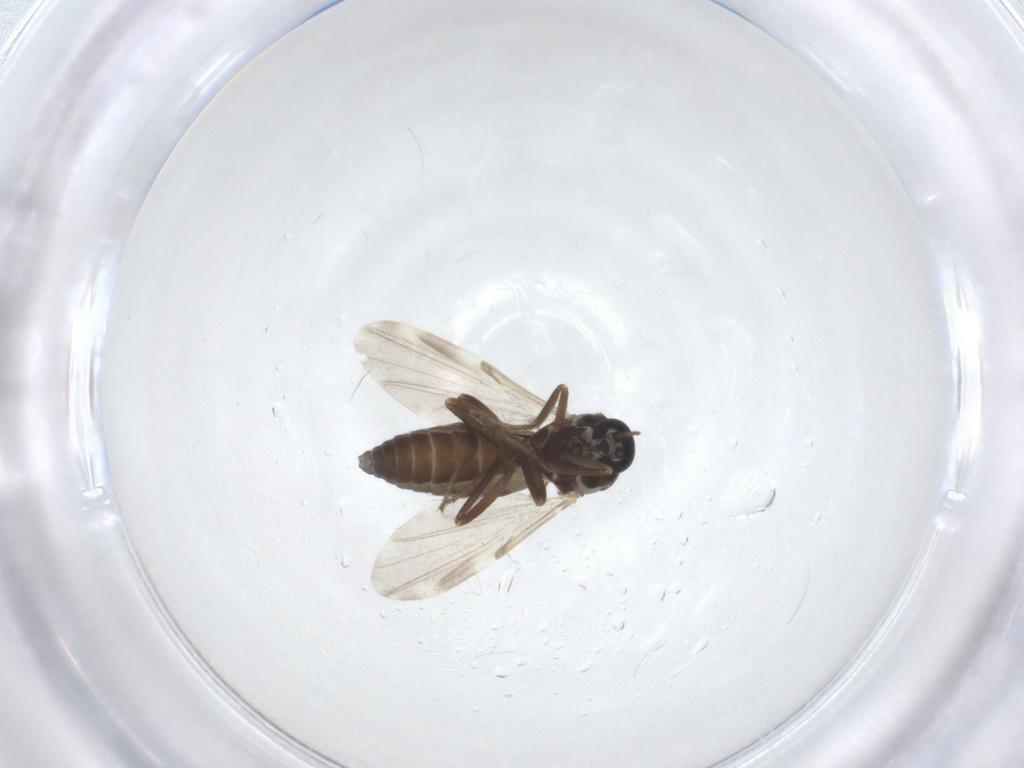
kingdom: Animalia
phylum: Arthropoda
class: Insecta
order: Diptera
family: Ceratopogonidae
